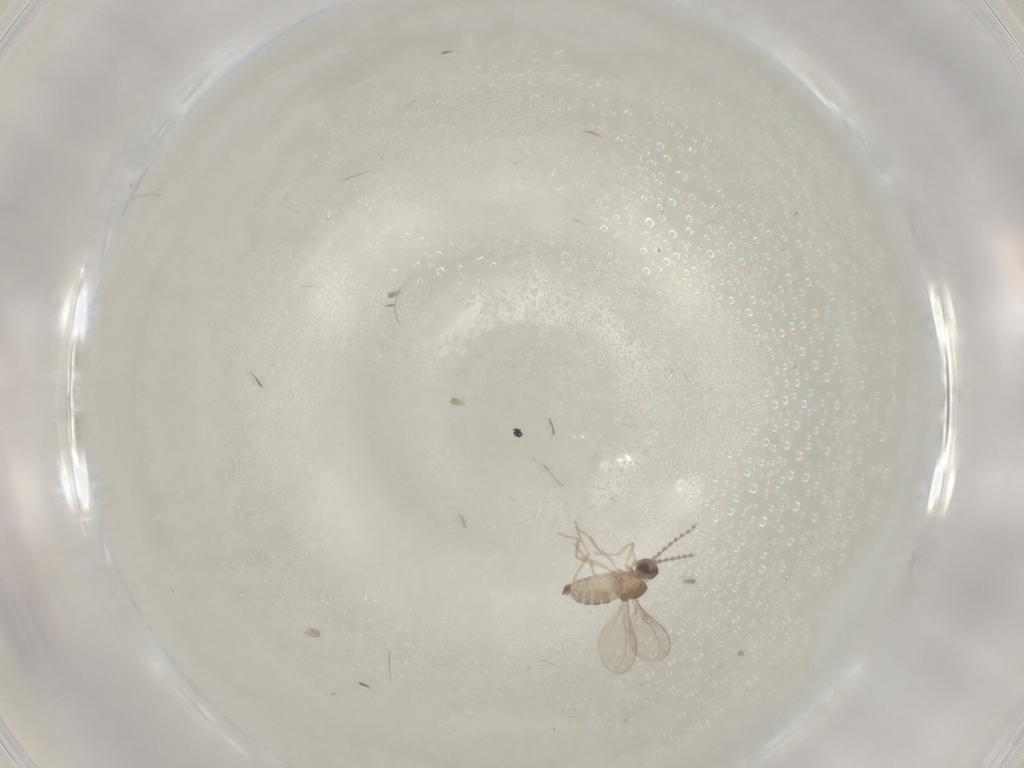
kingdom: Animalia
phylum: Arthropoda
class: Insecta
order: Diptera
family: Cecidomyiidae
